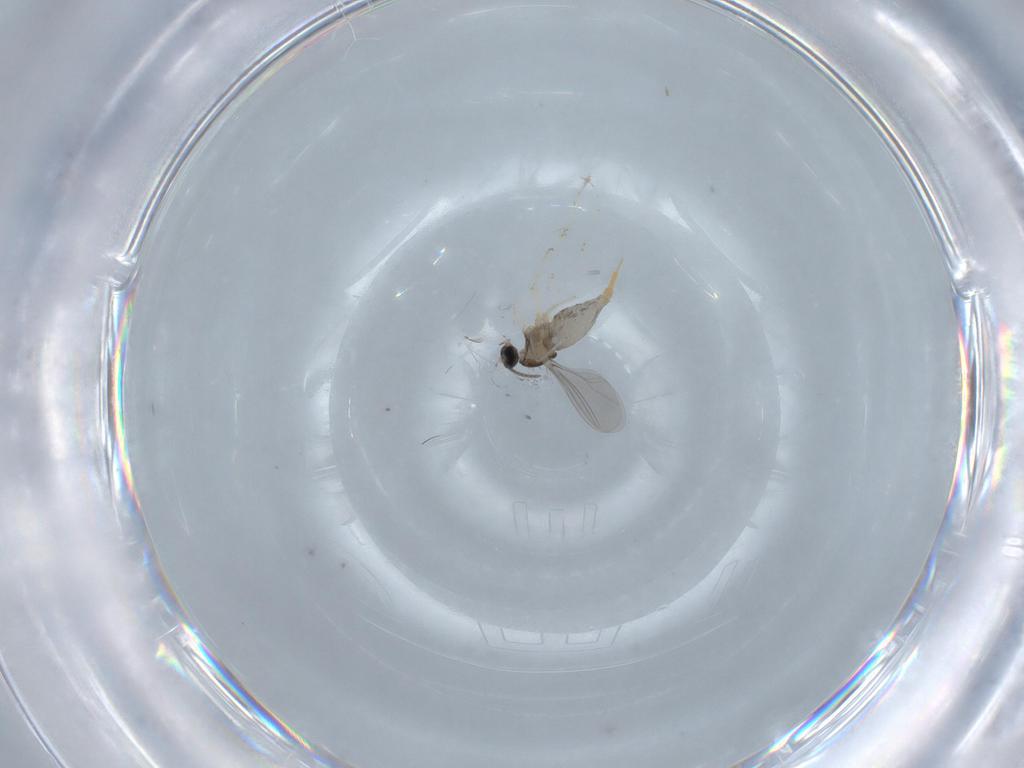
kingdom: Animalia
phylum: Arthropoda
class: Insecta
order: Diptera
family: Cecidomyiidae
